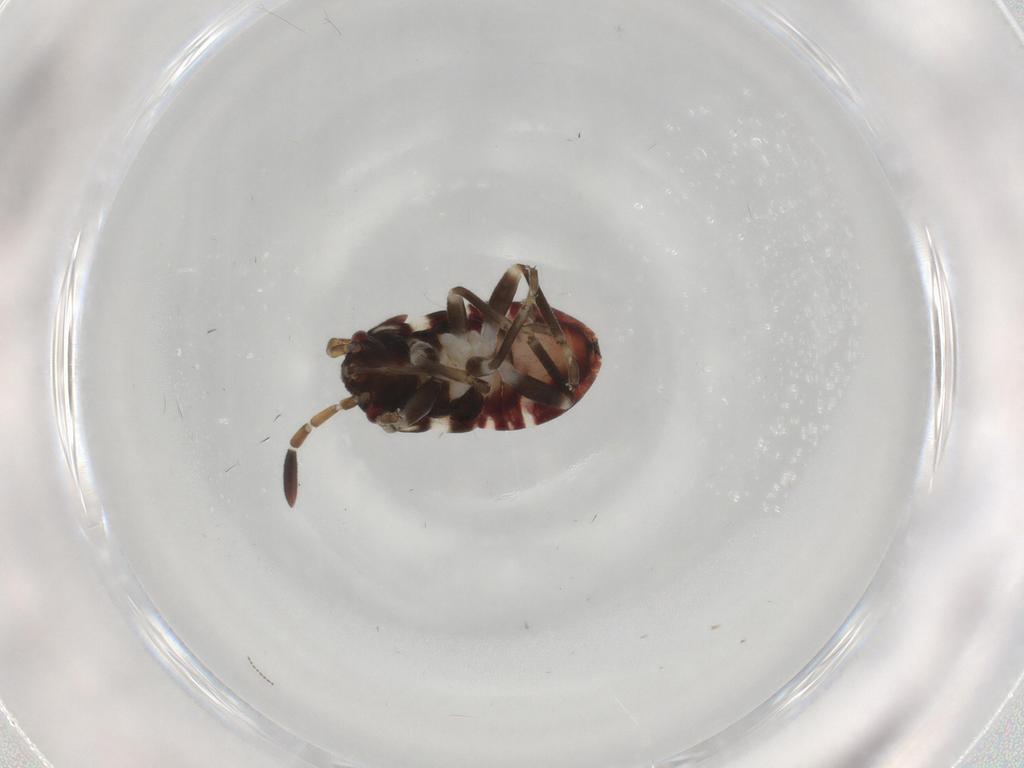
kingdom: Animalia
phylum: Arthropoda
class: Insecta
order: Hemiptera
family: Rhyparochromidae
